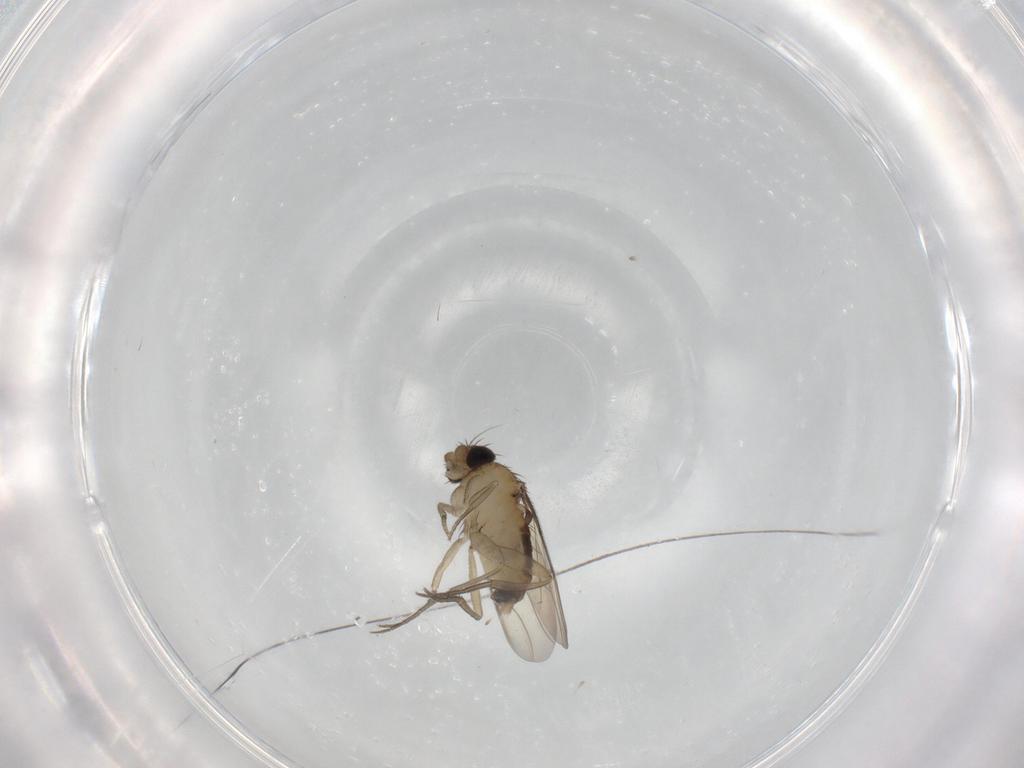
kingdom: Animalia
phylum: Arthropoda
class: Insecta
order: Diptera
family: Phoridae
